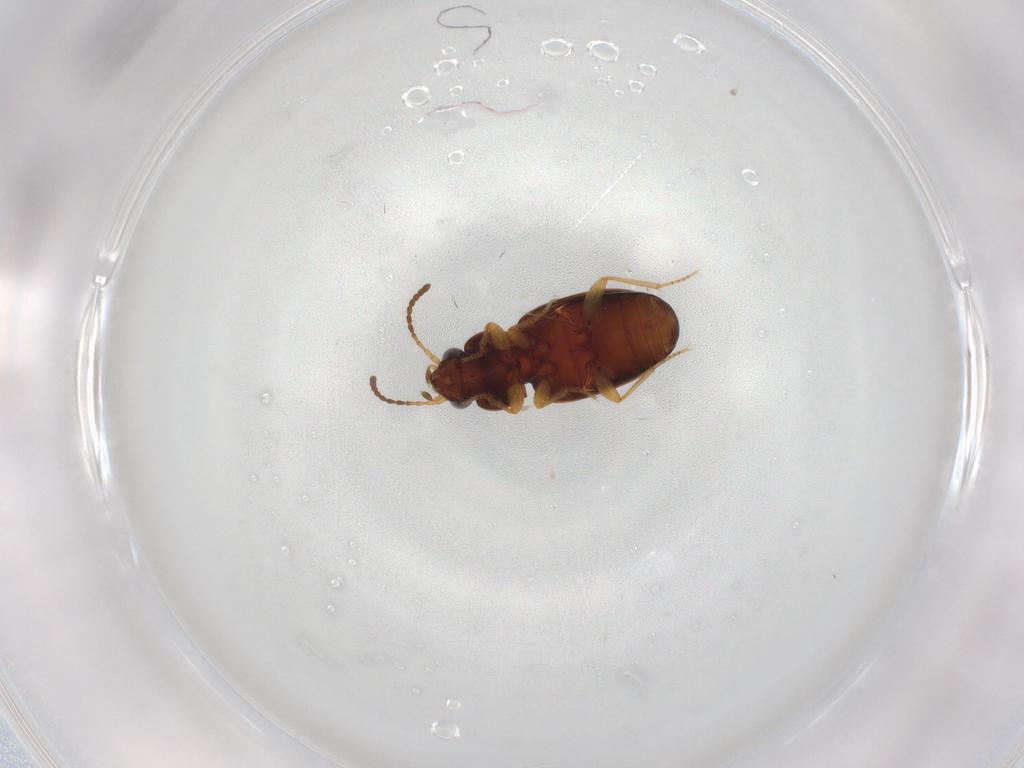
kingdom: Animalia
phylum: Arthropoda
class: Insecta
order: Coleoptera
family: Carabidae
